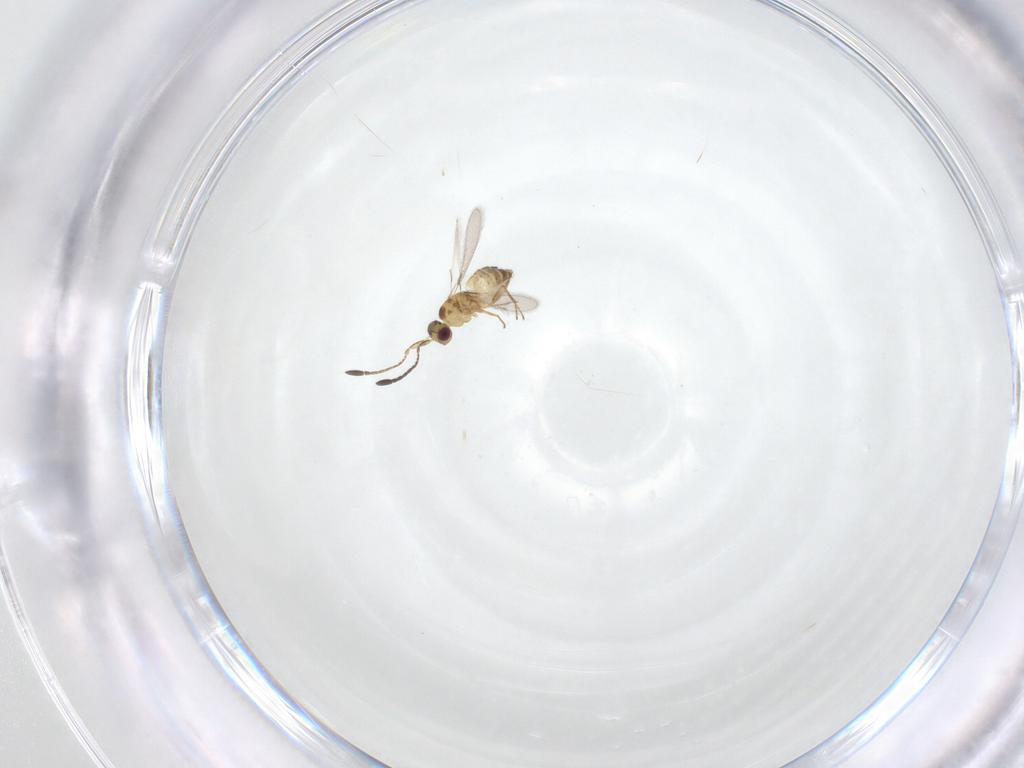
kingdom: Animalia
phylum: Arthropoda
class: Insecta
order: Hymenoptera
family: Mymaridae
